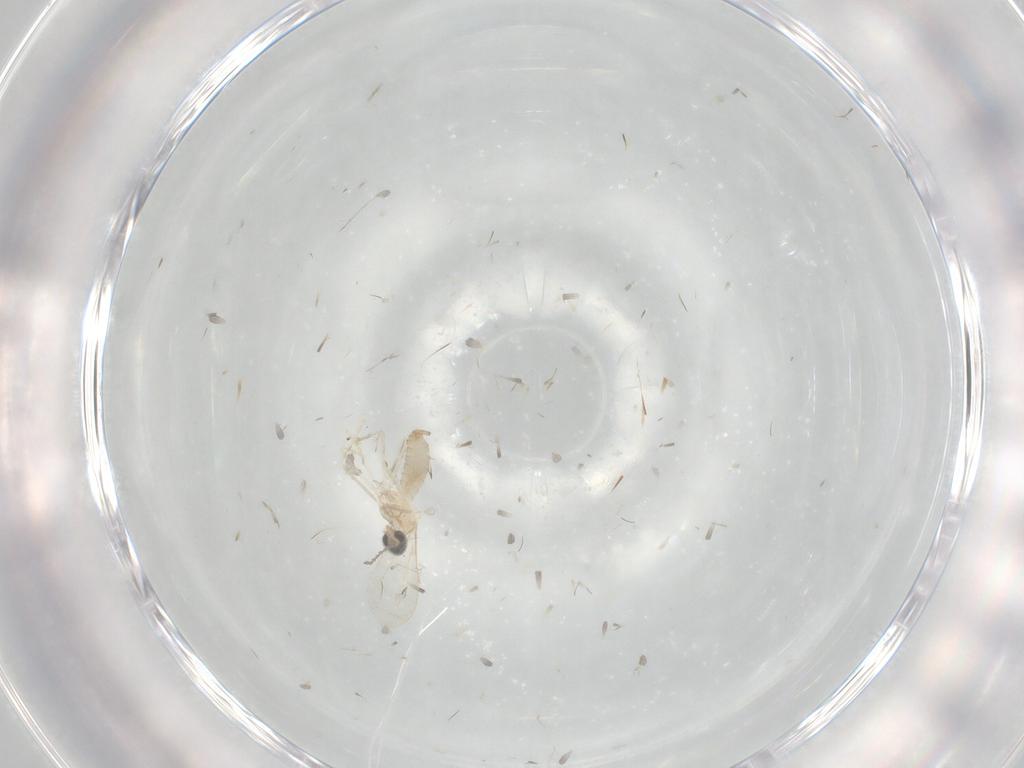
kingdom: Animalia
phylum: Arthropoda
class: Insecta
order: Diptera
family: Cecidomyiidae
